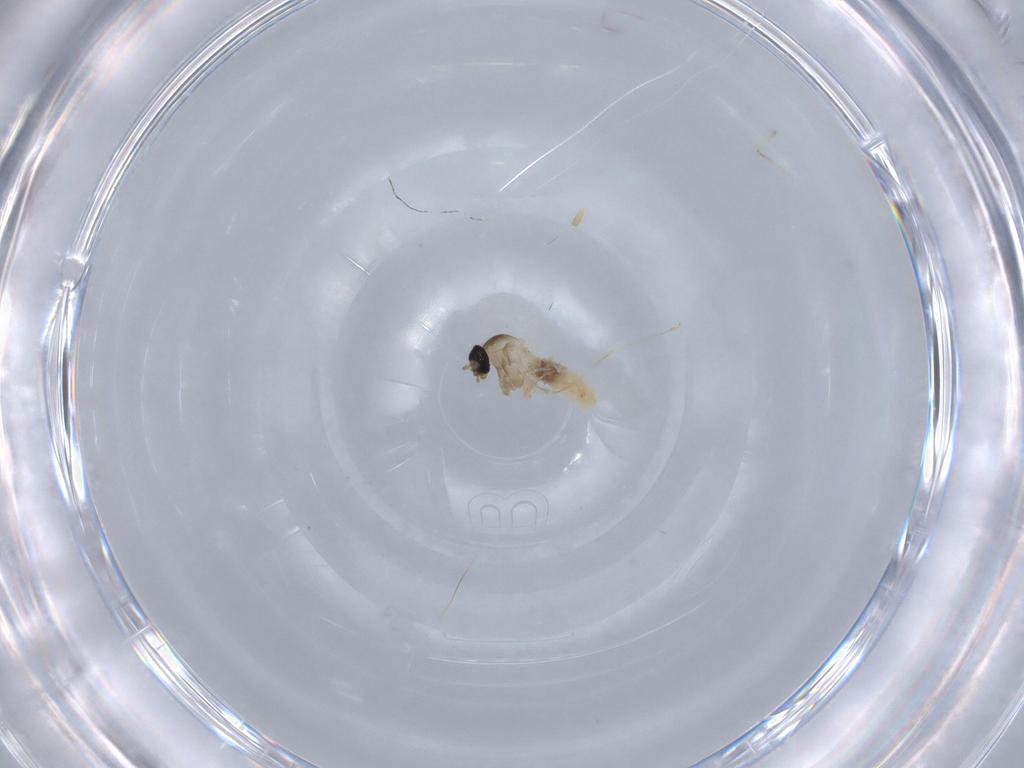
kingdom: Animalia
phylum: Arthropoda
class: Insecta
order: Diptera
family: Cecidomyiidae
